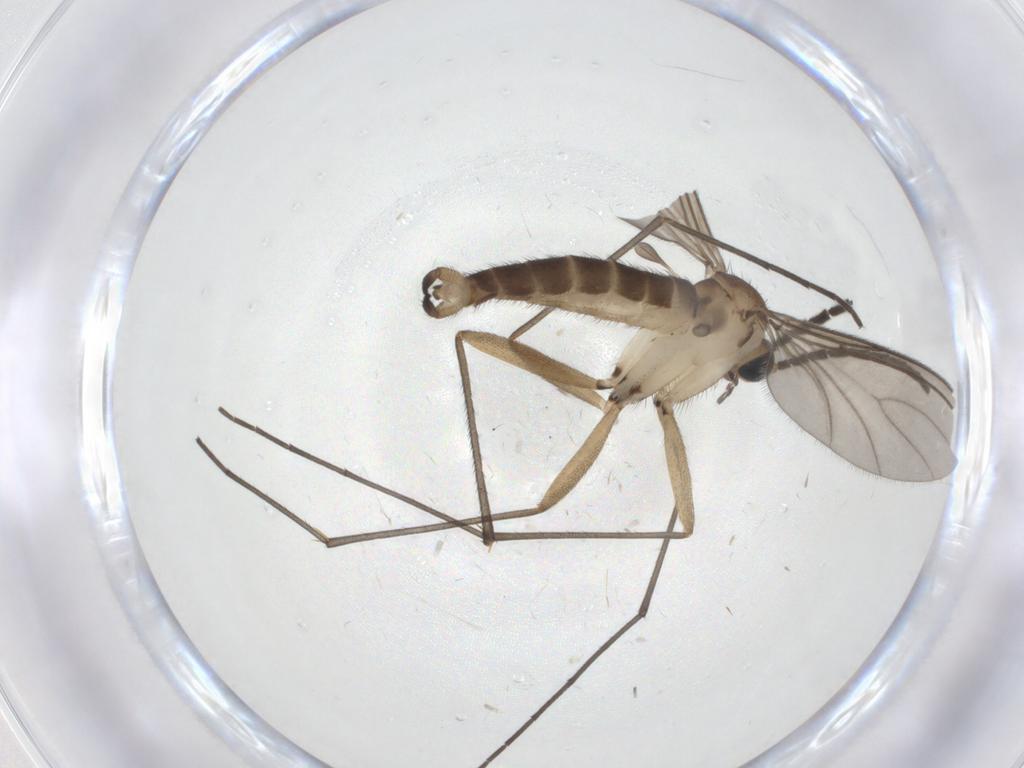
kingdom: Animalia
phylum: Arthropoda
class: Insecta
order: Diptera
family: Sciaridae
